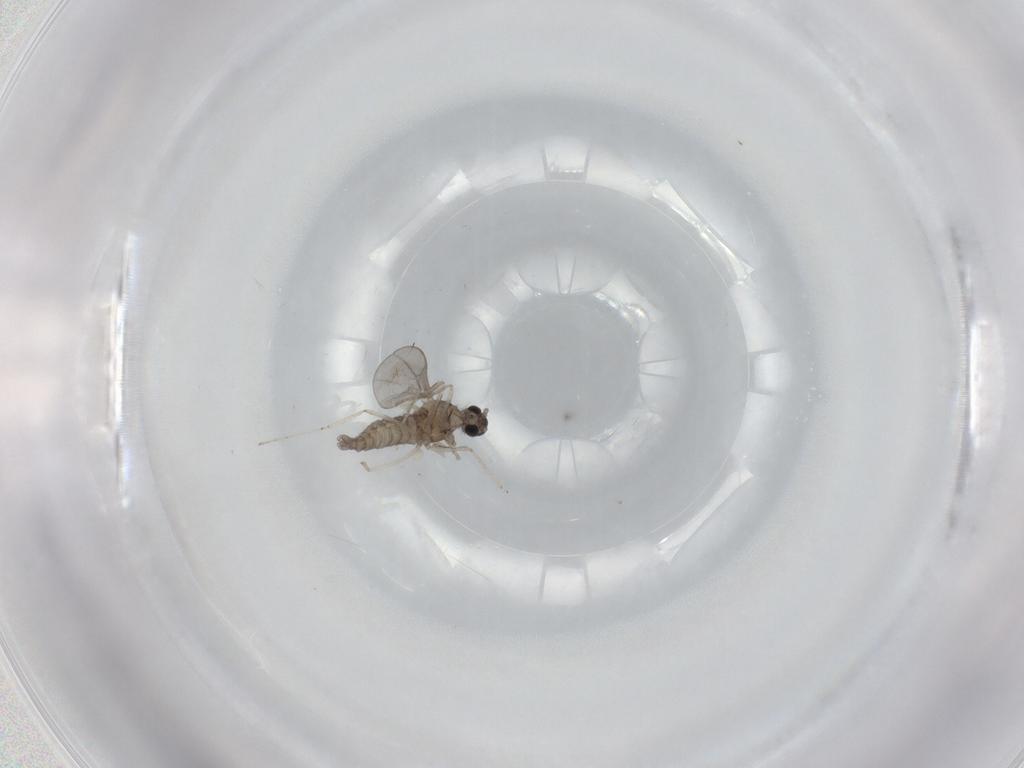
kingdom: Animalia
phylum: Arthropoda
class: Insecta
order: Diptera
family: Cecidomyiidae
